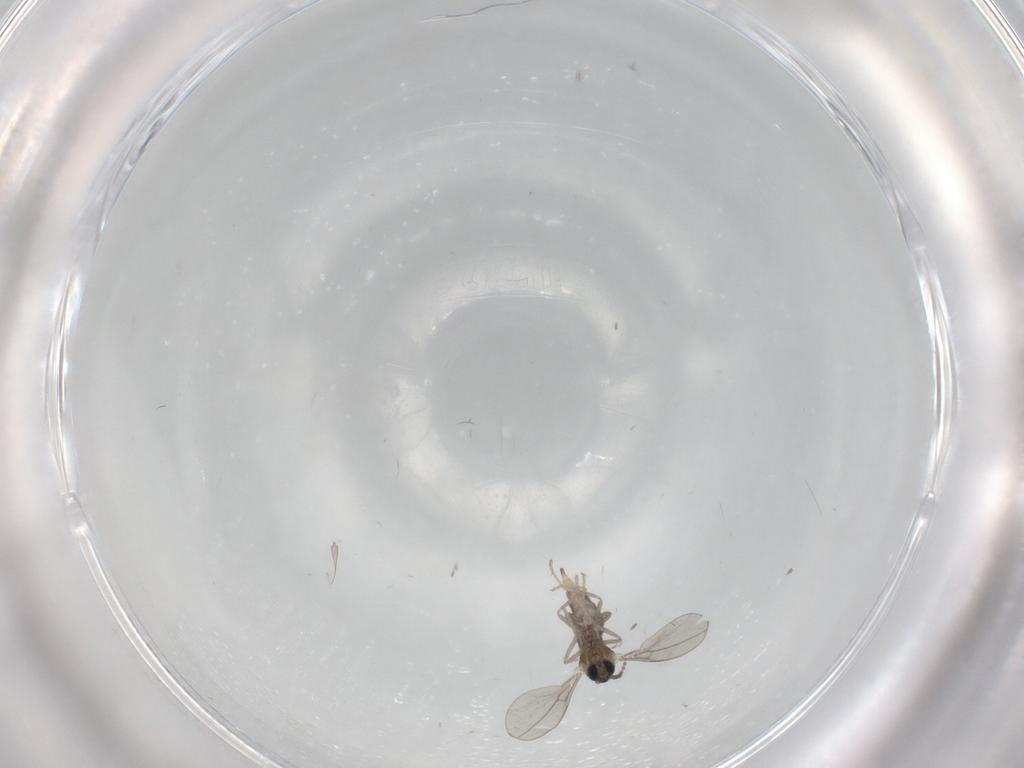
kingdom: Animalia
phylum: Arthropoda
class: Insecta
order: Diptera
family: Cecidomyiidae
